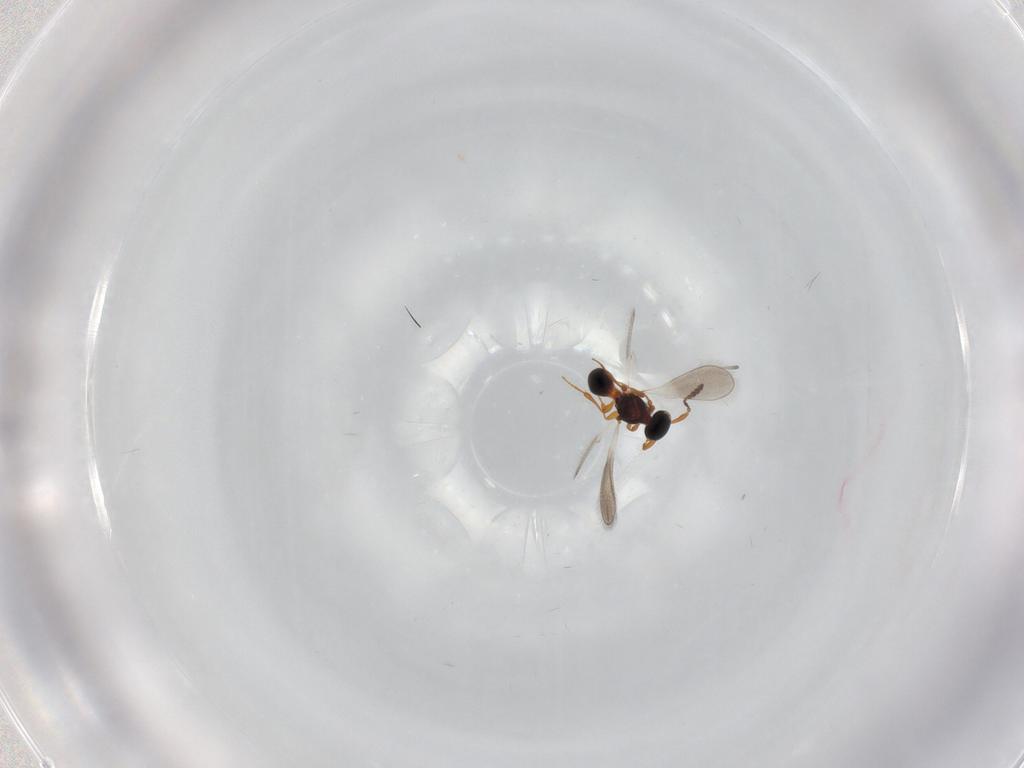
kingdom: Animalia
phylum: Arthropoda
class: Insecta
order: Hymenoptera
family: Platygastridae
